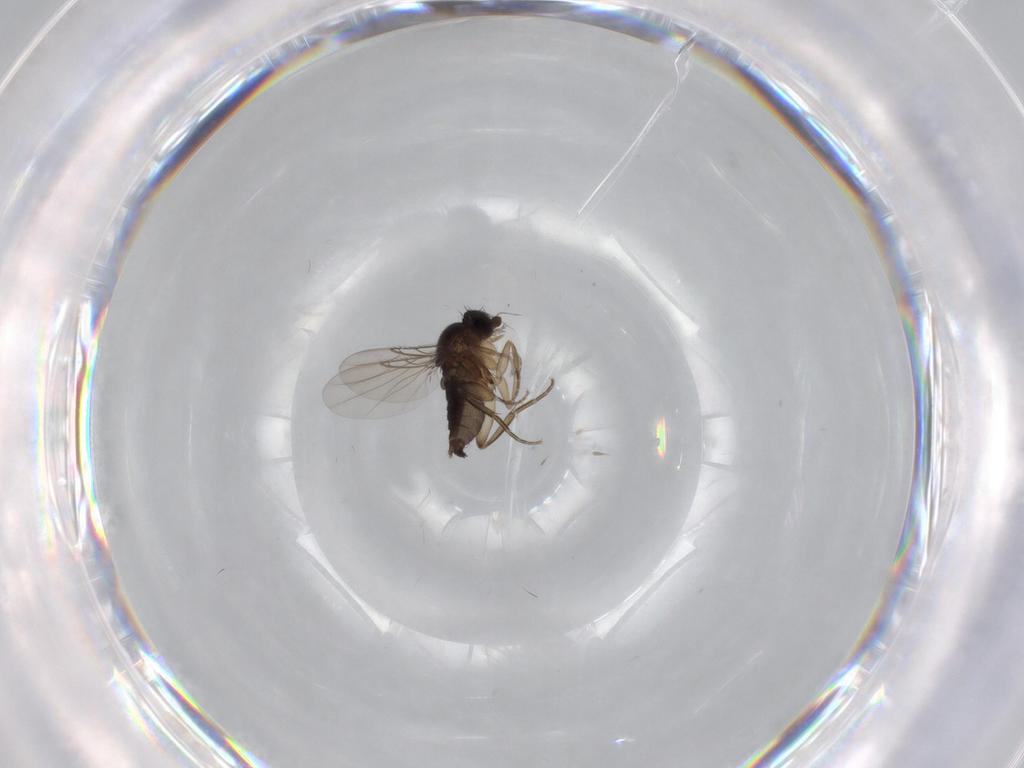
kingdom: Animalia
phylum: Arthropoda
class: Insecta
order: Diptera
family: Phoridae
